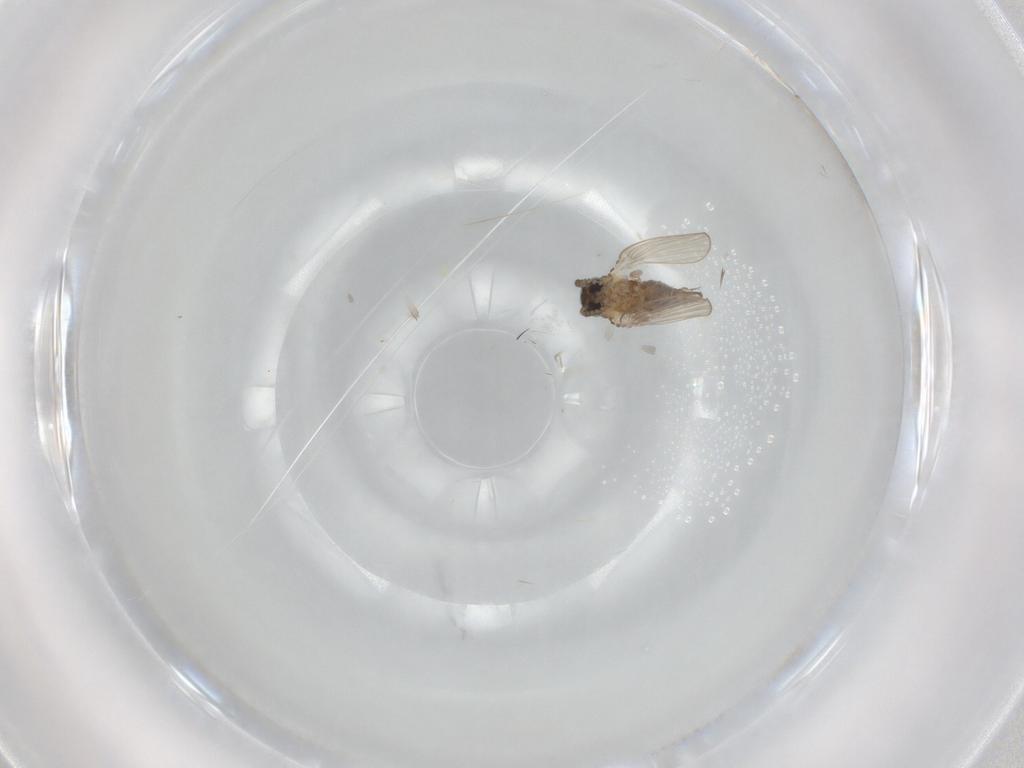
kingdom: Animalia
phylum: Arthropoda
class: Insecta
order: Diptera
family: Psychodidae
